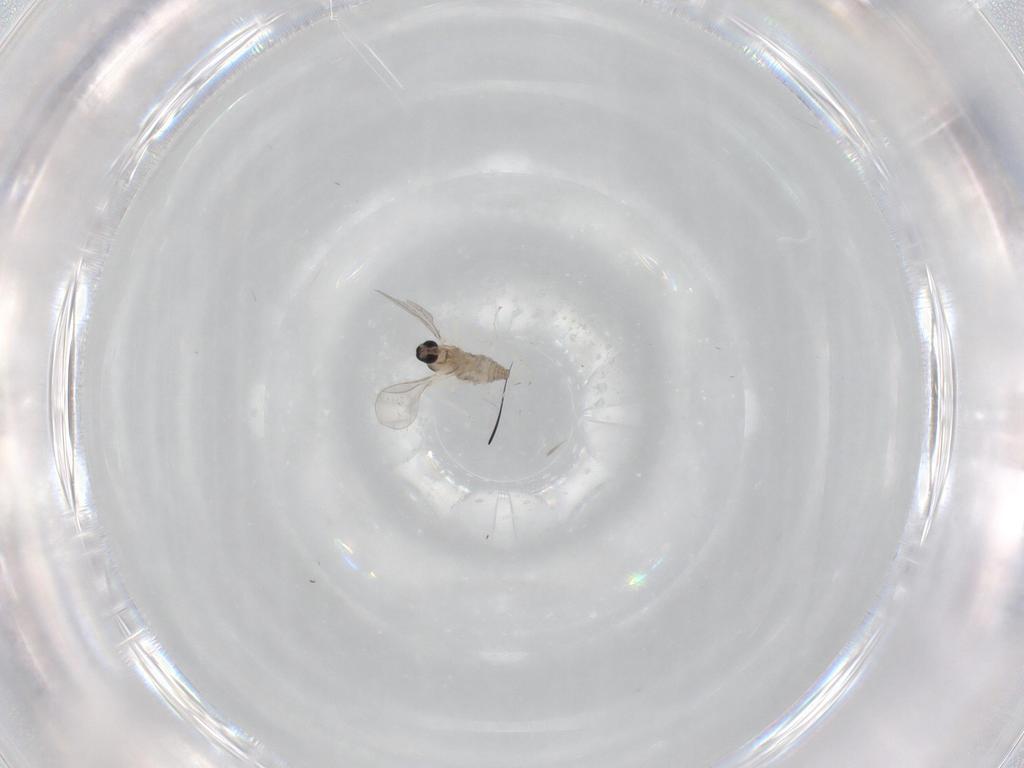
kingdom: Animalia
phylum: Arthropoda
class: Insecta
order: Diptera
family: Cecidomyiidae
